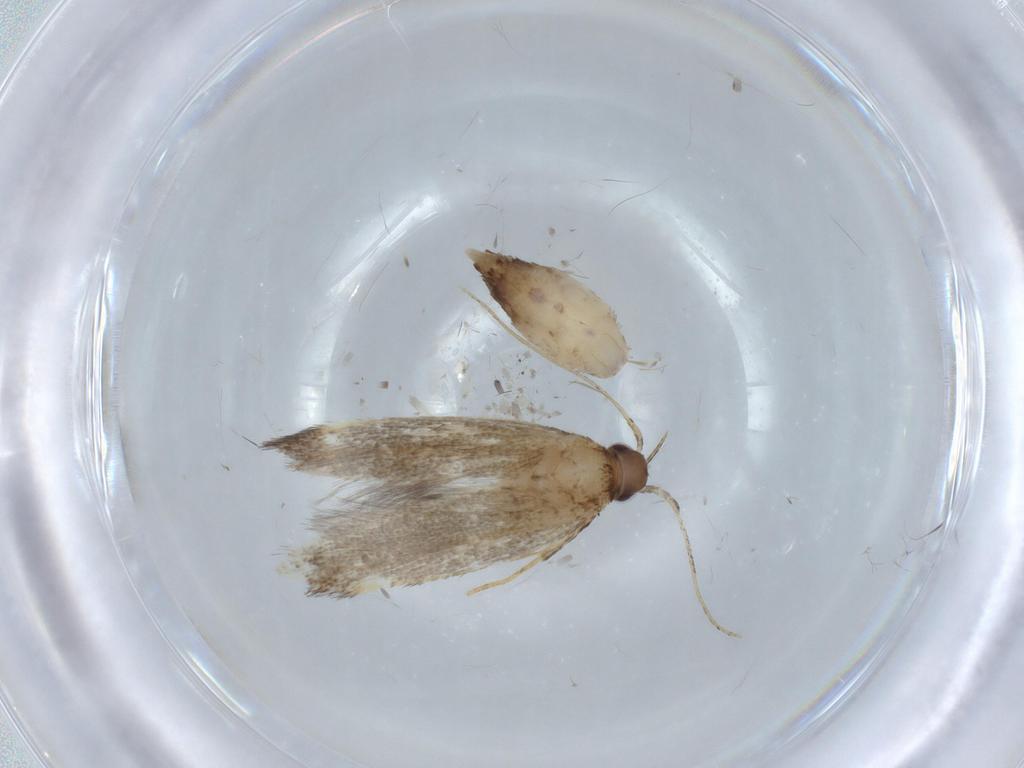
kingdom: Animalia
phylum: Arthropoda
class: Insecta
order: Lepidoptera
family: Cosmopterigidae
